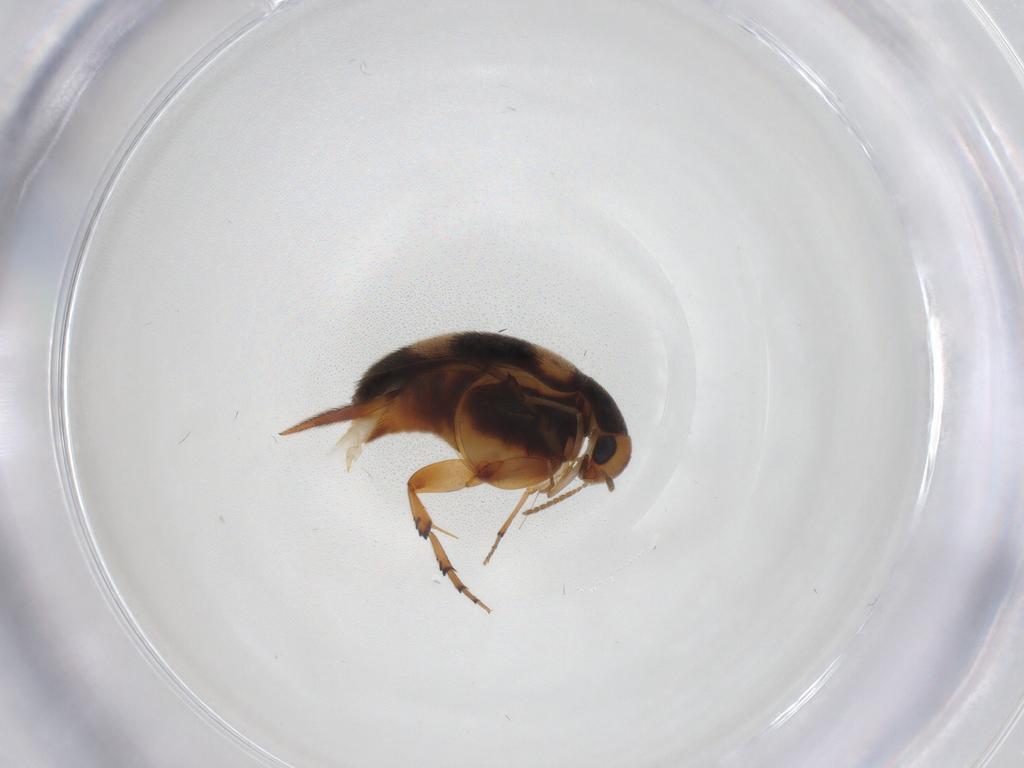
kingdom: Animalia
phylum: Arthropoda
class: Insecta
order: Coleoptera
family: Mordellidae
